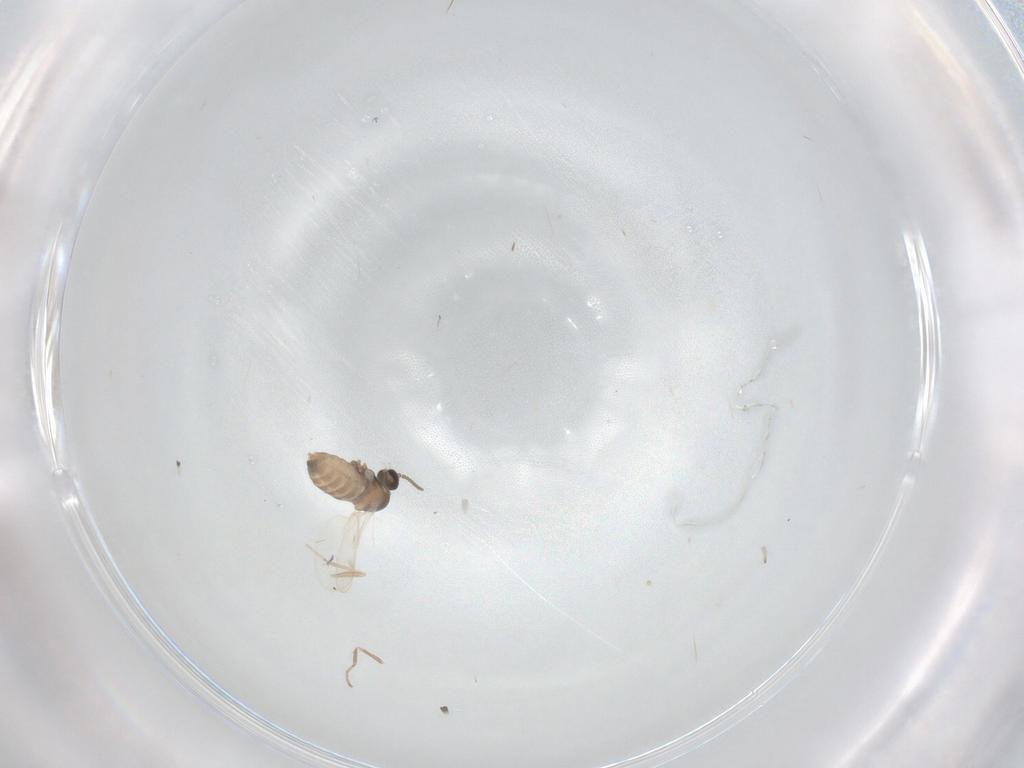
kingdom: Animalia
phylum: Arthropoda
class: Insecta
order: Diptera
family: Cecidomyiidae
